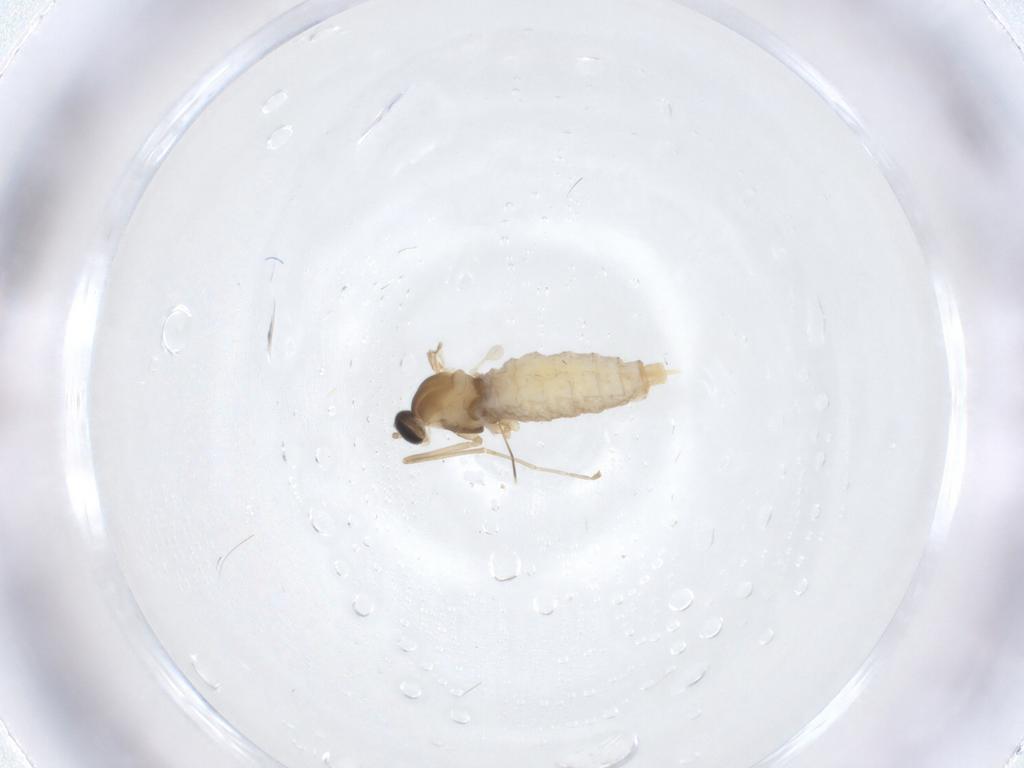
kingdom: Animalia
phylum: Arthropoda
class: Insecta
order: Diptera
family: Cecidomyiidae
